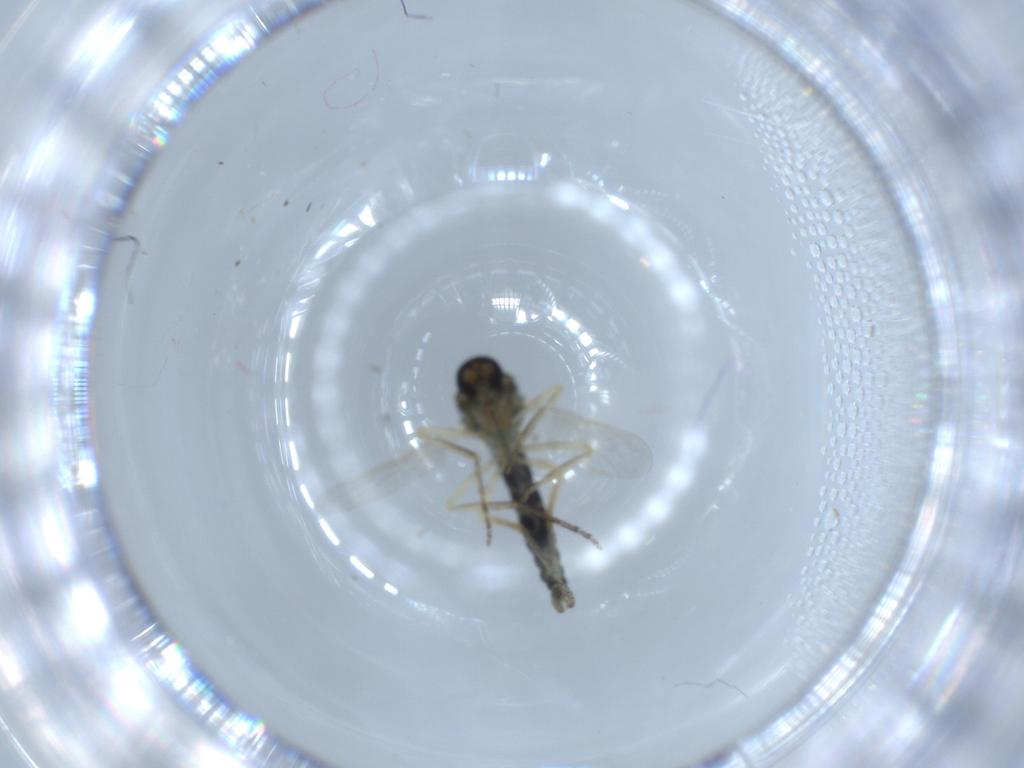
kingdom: Animalia
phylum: Arthropoda
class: Insecta
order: Diptera
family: Ceratopogonidae
